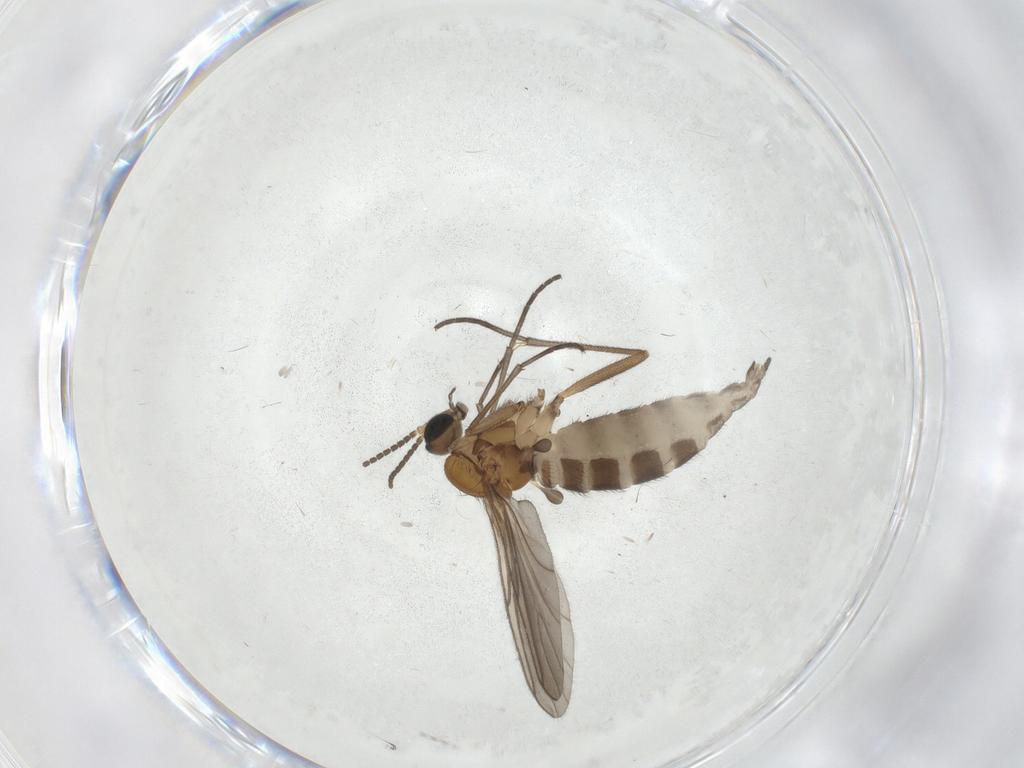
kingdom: Animalia
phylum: Arthropoda
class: Insecta
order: Diptera
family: Sciaridae
